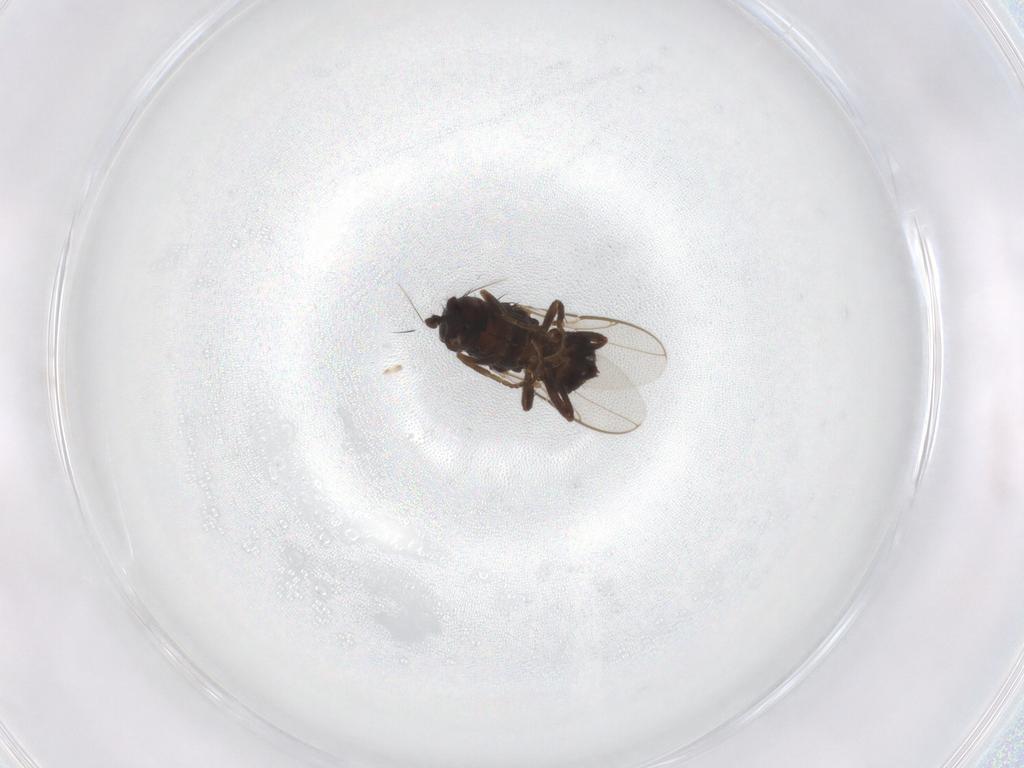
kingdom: Animalia
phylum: Arthropoda
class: Insecta
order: Diptera
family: Sphaeroceridae
